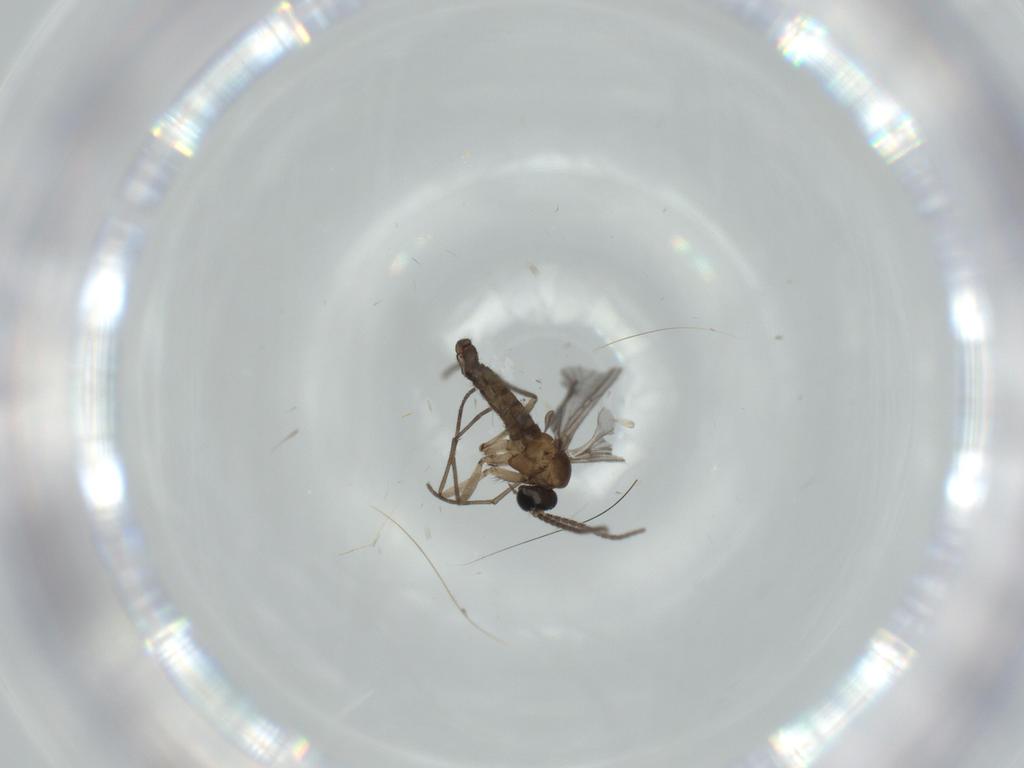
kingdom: Animalia
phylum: Arthropoda
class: Insecta
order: Diptera
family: Sciaridae
